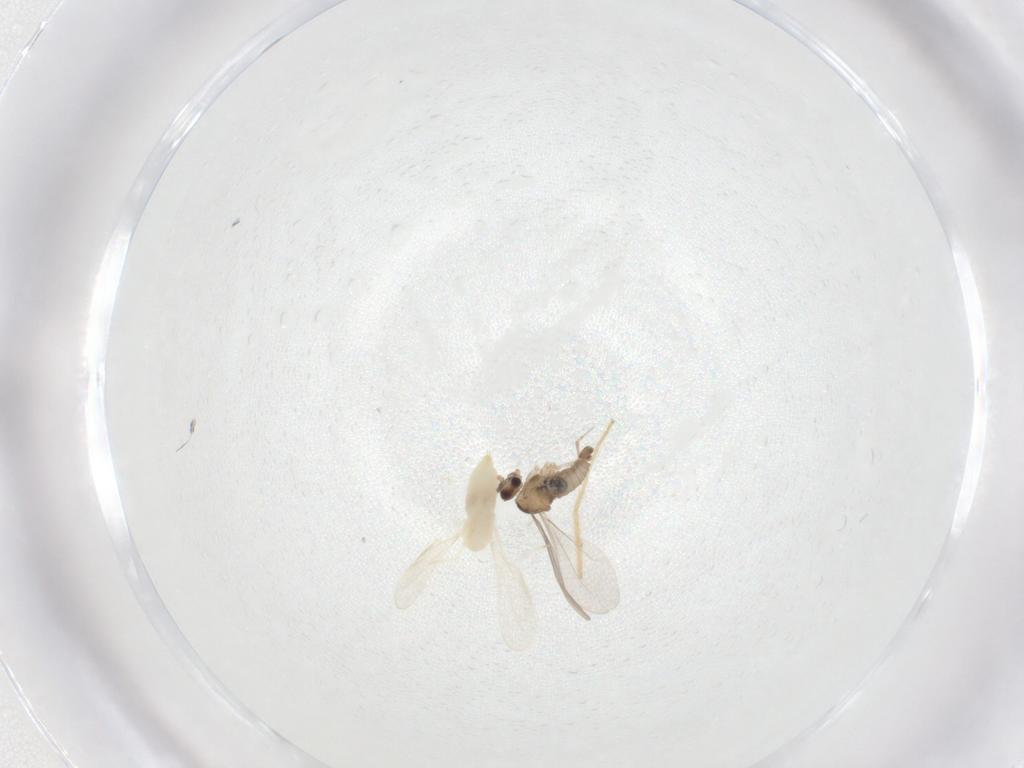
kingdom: Animalia
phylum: Arthropoda
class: Insecta
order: Diptera
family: Cecidomyiidae
